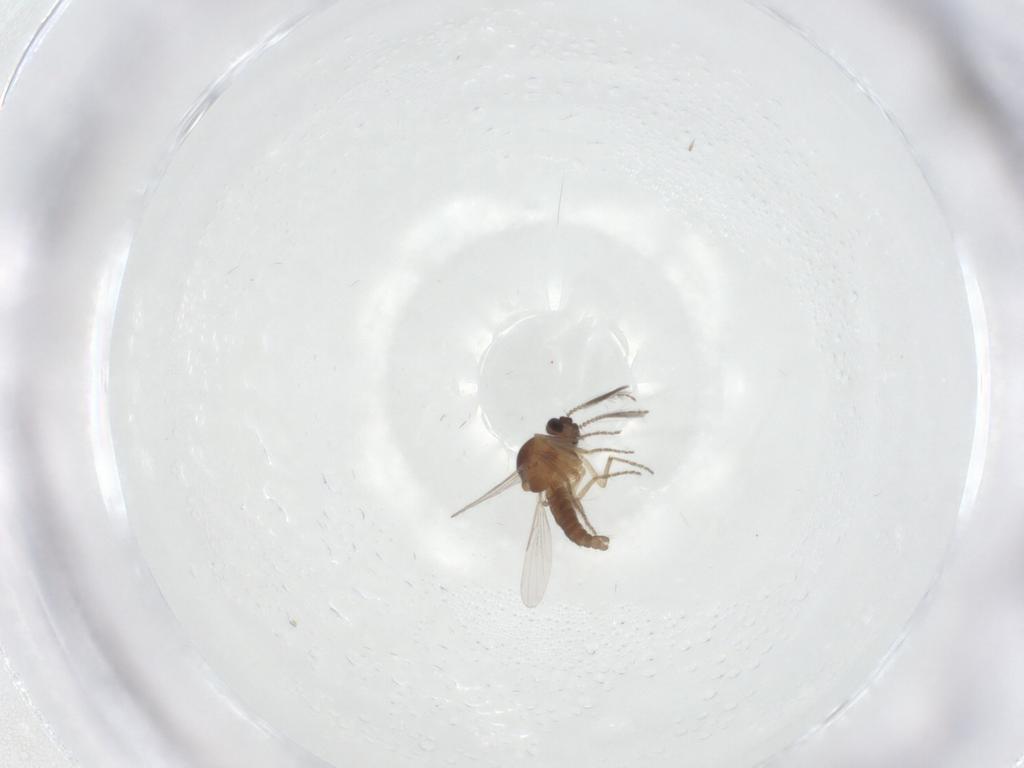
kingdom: Animalia
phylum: Arthropoda
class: Insecta
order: Diptera
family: Ceratopogonidae
